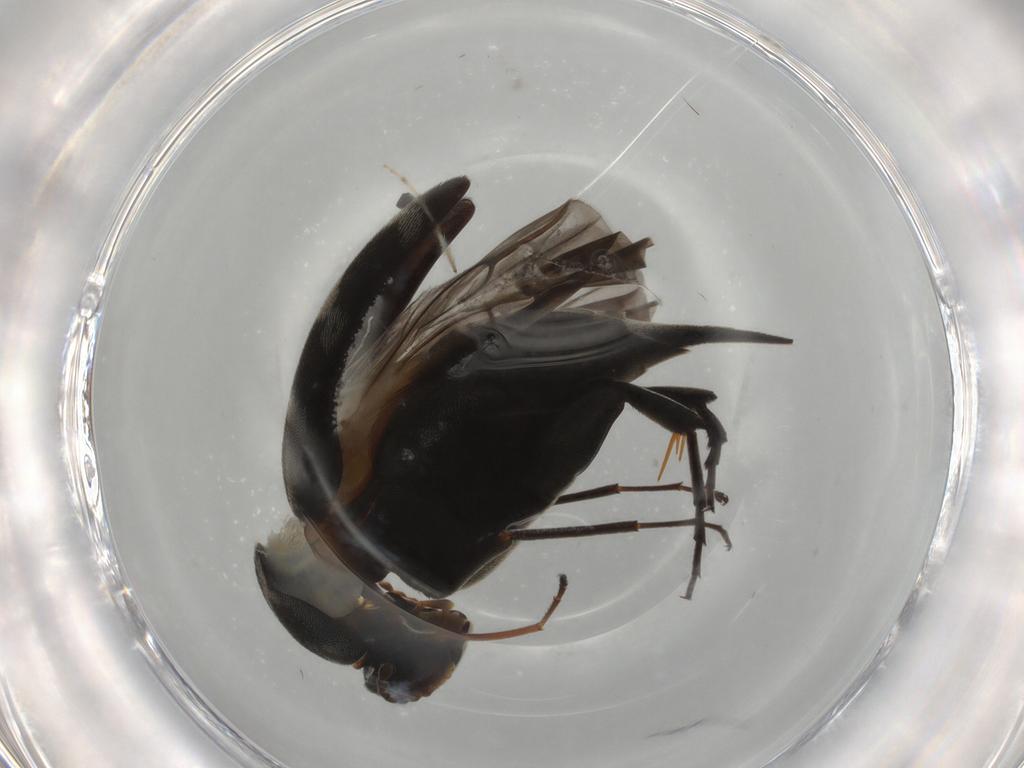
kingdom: Animalia
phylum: Arthropoda
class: Insecta
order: Coleoptera
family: Mordellidae
